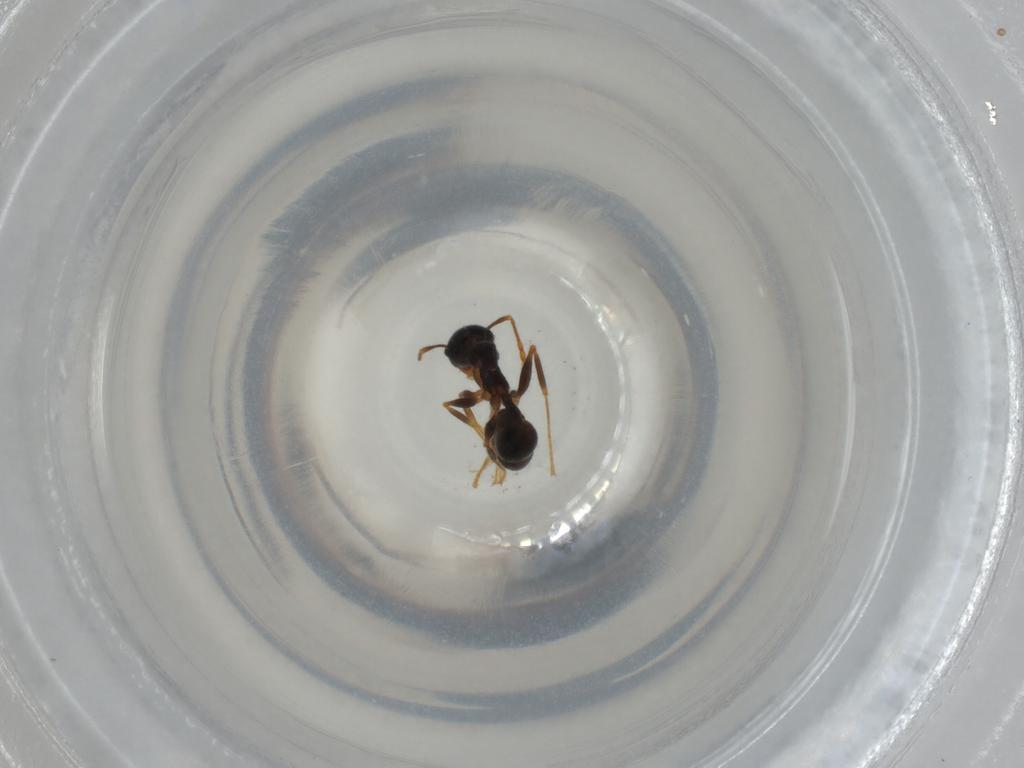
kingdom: Animalia
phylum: Arthropoda
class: Insecta
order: Hymenoptera
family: Formicidae
